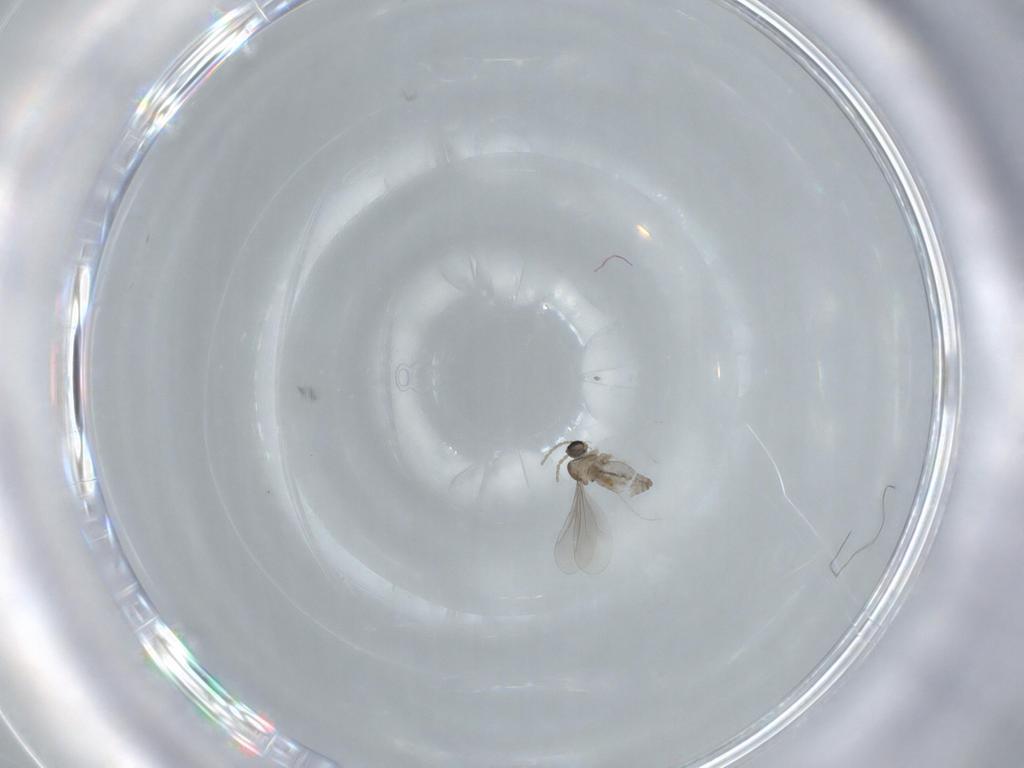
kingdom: Animalia
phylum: Arthropoda
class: Insecta
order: Diptera
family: Cecidomyiidae
